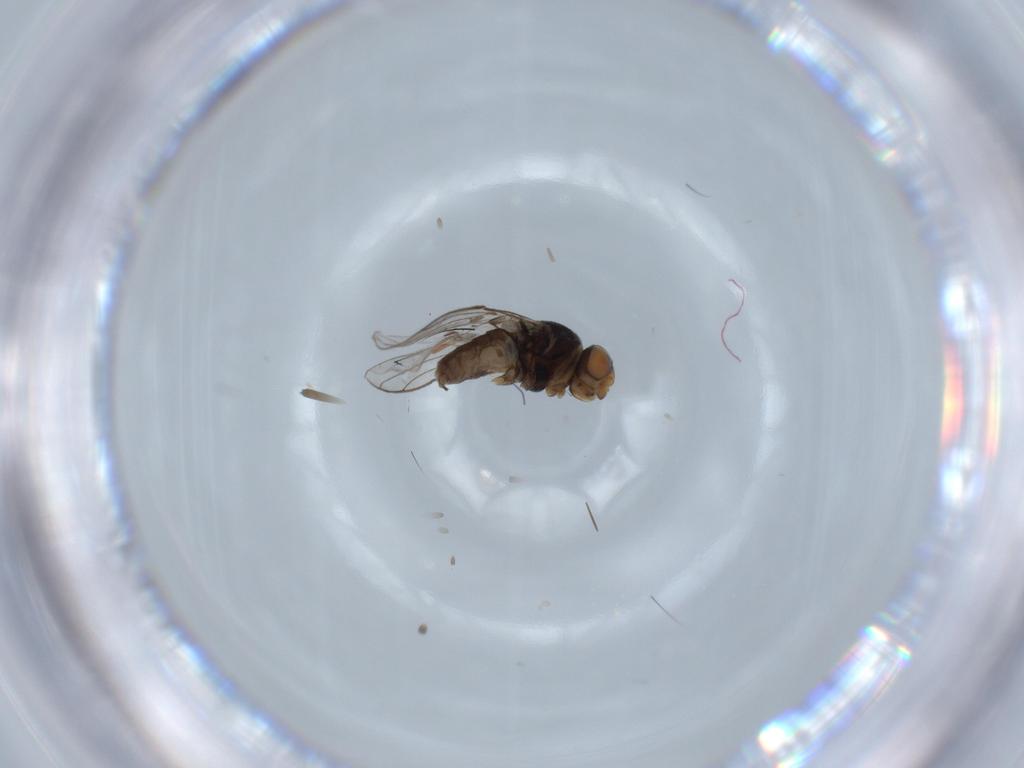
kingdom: Animalia
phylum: Arthropoda
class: Insecta
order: Diptera
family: Chloropidae
